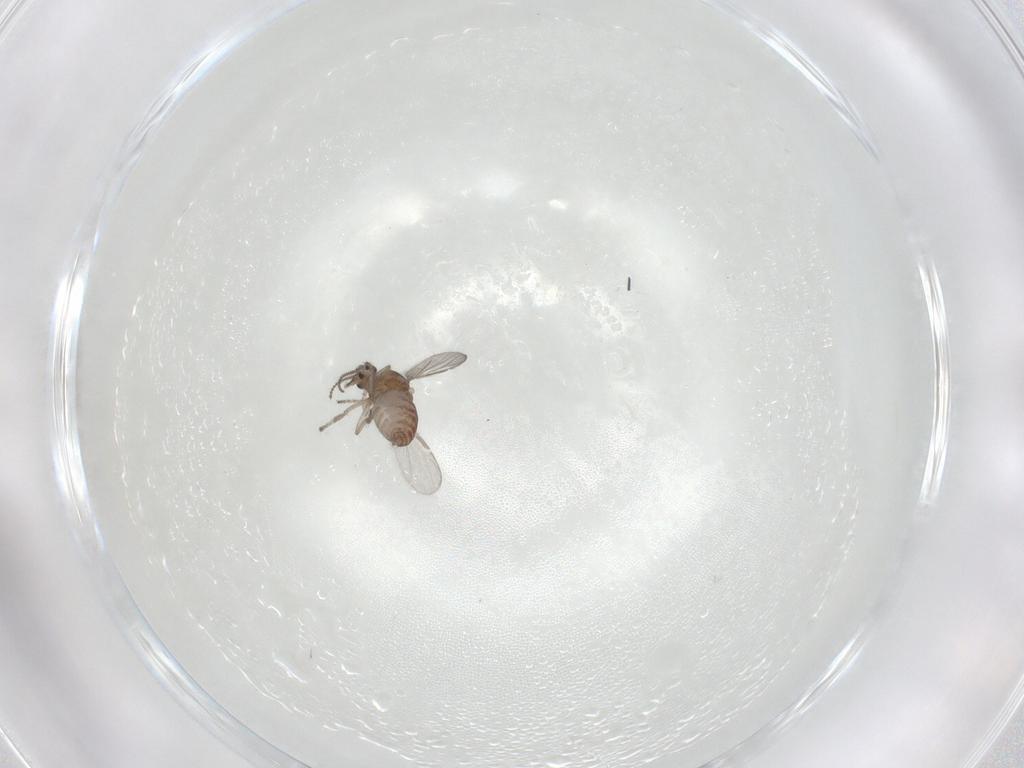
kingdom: Animalia
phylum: Arthropoda
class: Insecta
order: Diptera
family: Ceratopogonidae
